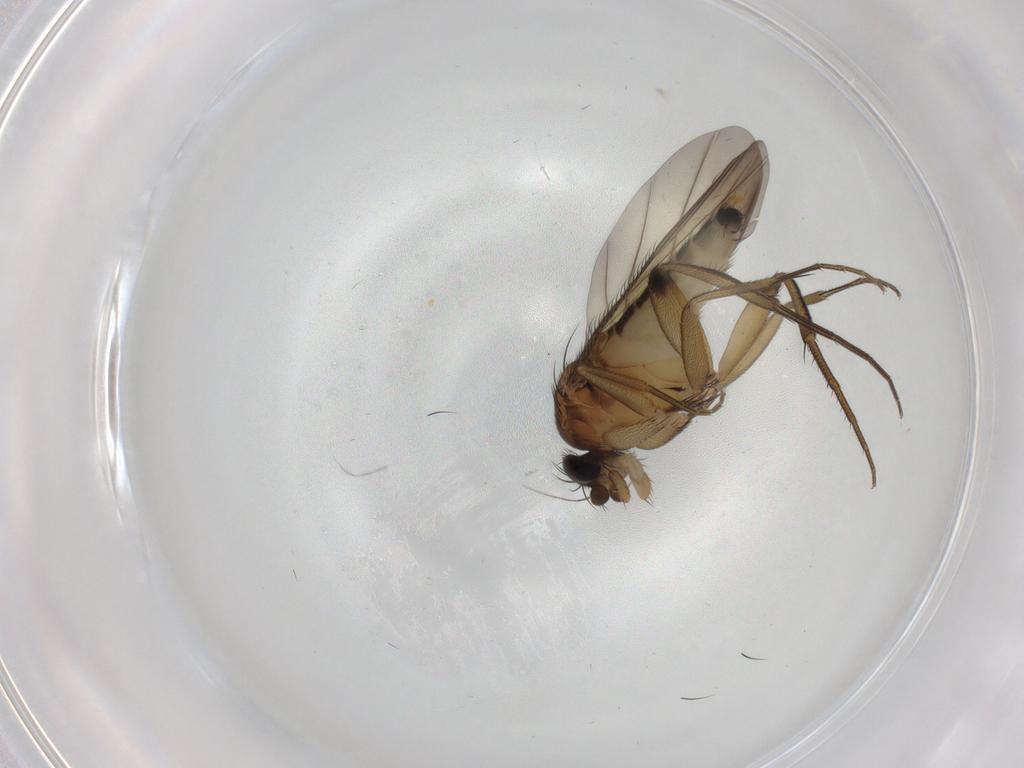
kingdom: Animalia
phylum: Arthropoda
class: Insecta
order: Diptera
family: Phoridae
